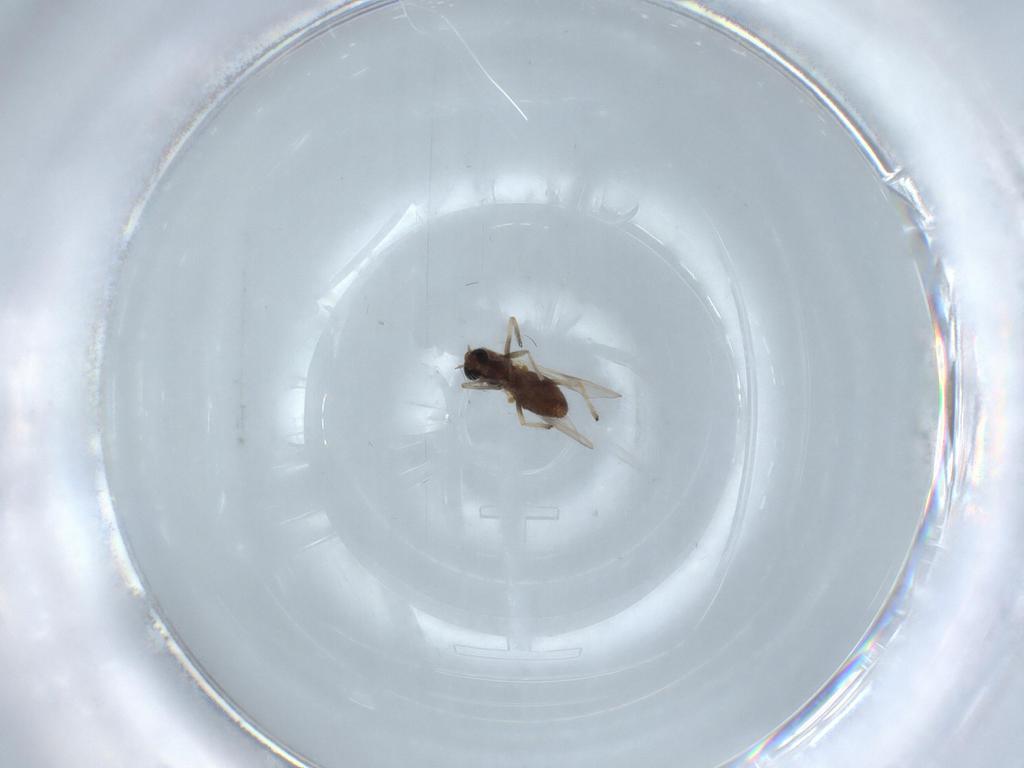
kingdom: Animalia
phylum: Arthropoda
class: Insecta
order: Diptera
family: Chironomidae
